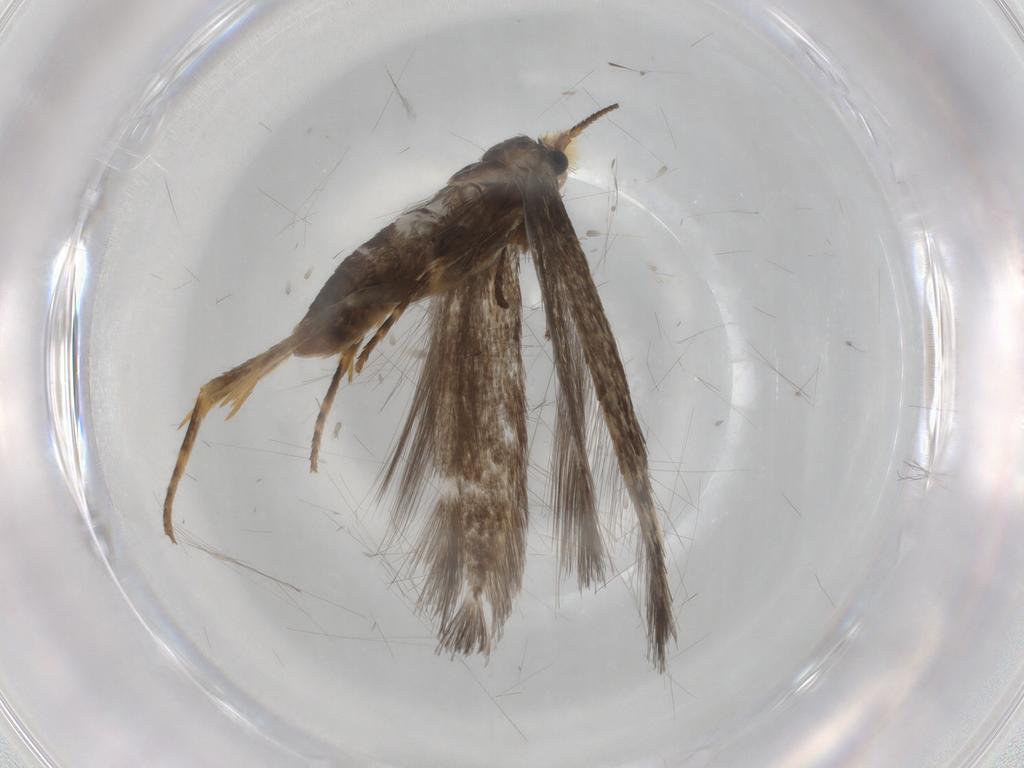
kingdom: Animalia
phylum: Arthropoda
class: Insecta
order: Lepidoptera
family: Nepticulidae
